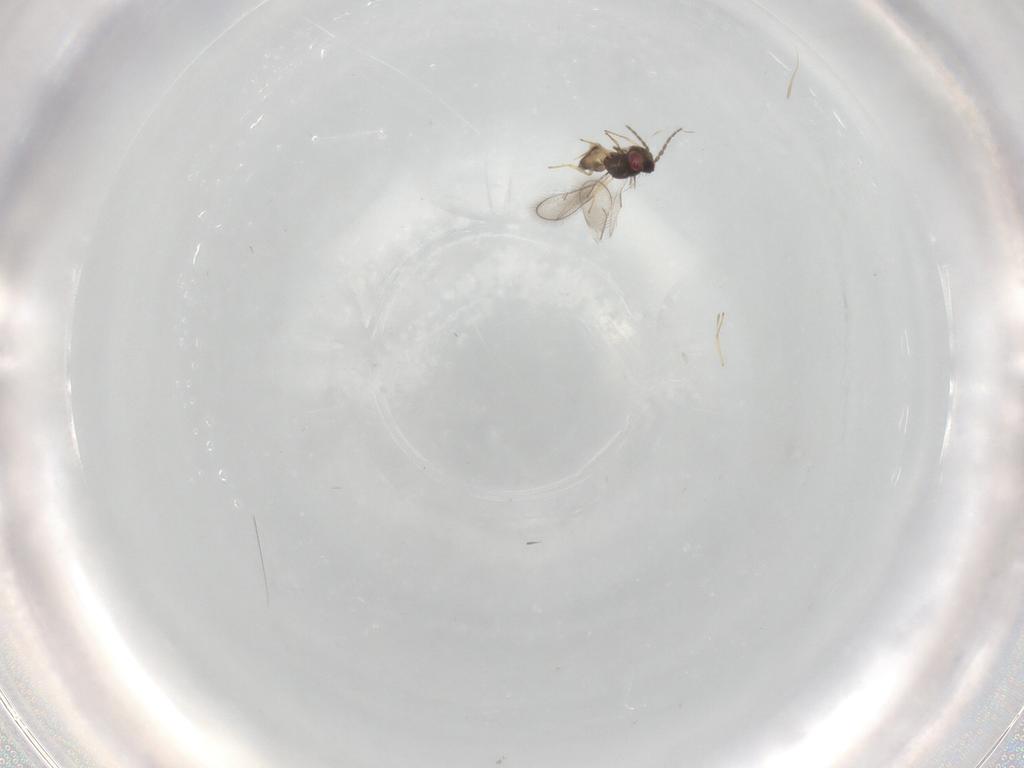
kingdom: Animalia
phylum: Arthropoda
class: Insecta
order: Hymenoptera
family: Eulophidae
